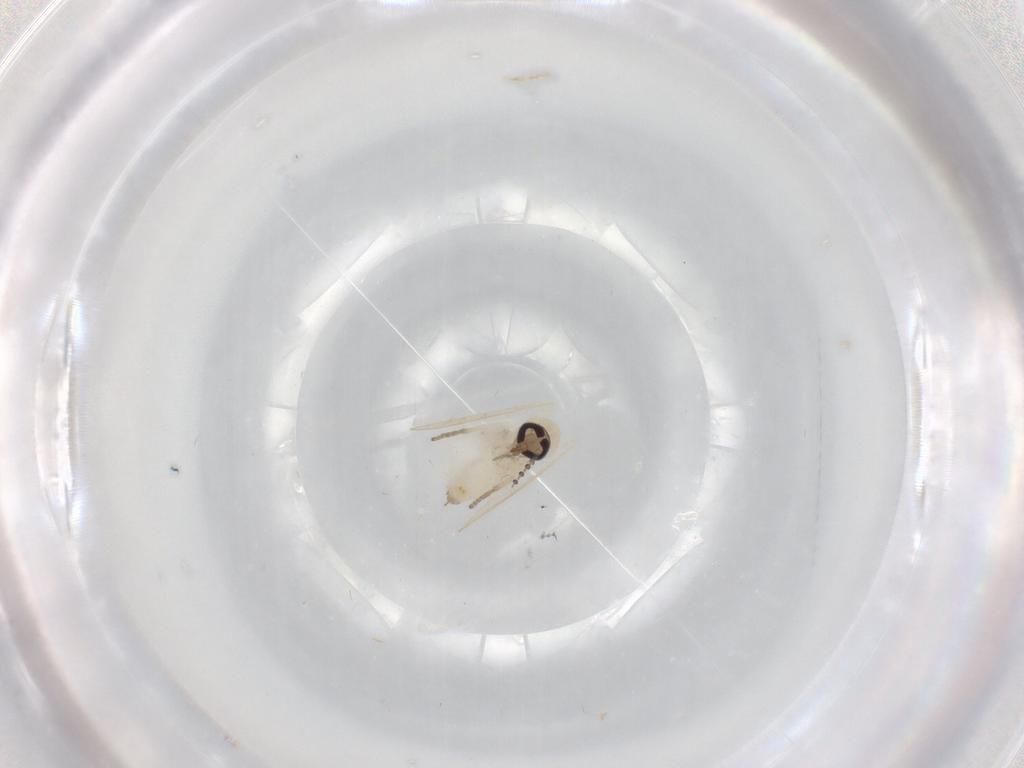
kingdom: Animalia
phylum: Arthropoda
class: Insecta
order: Diptera
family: Psychodidae
